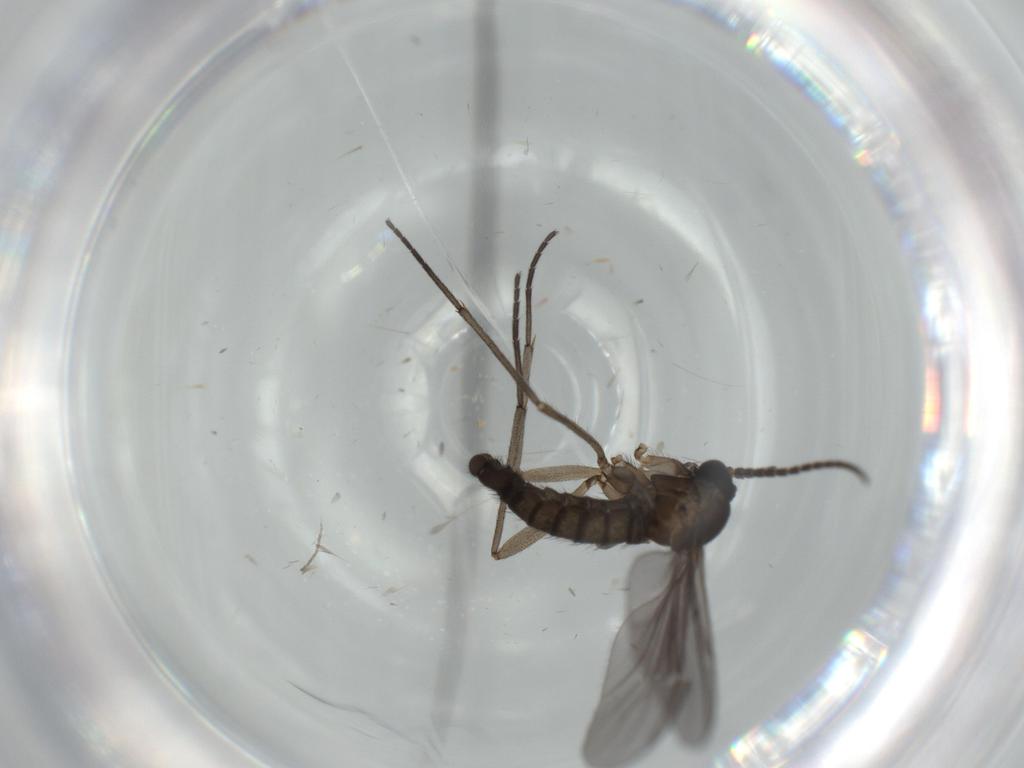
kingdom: Animalia
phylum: Arthropoda
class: Insecta
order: Diptera
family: Sciaridae
